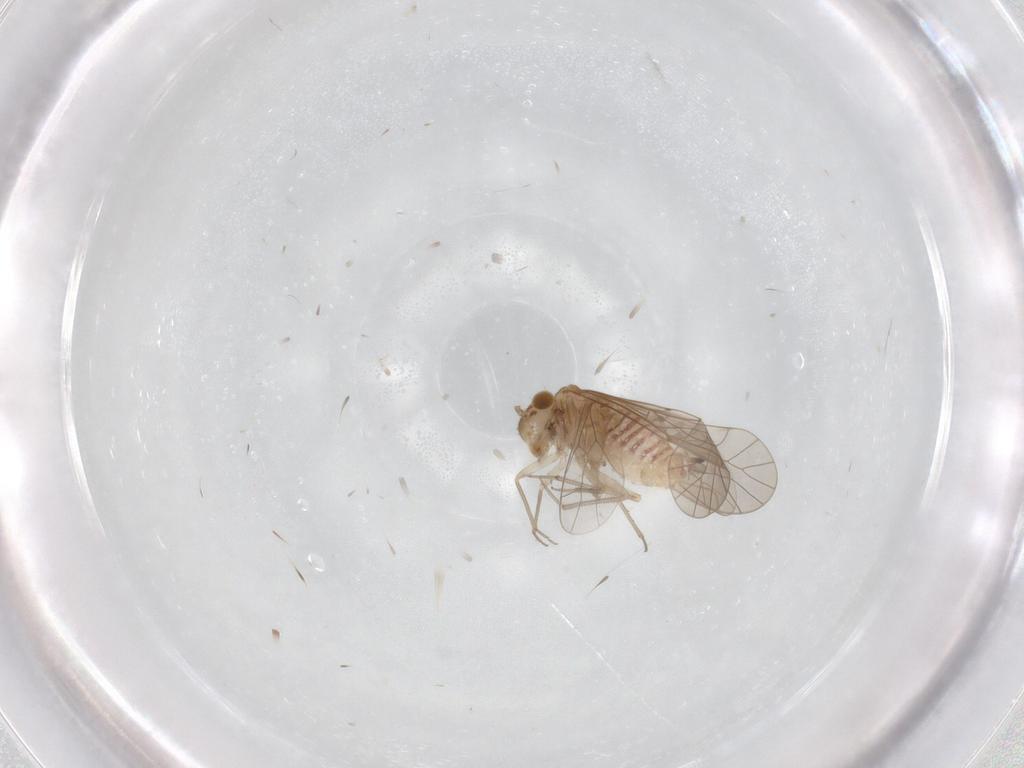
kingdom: Animalia
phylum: Arthropoda
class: Insecta
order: Psocodea
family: Lachesillidae
